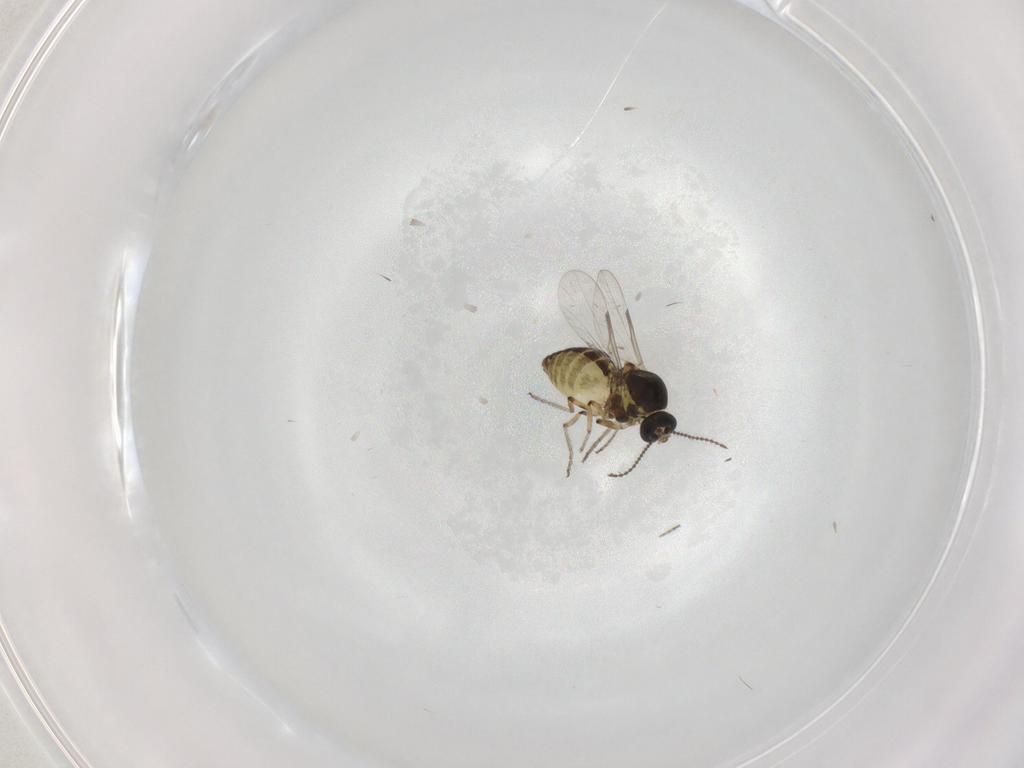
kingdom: Animalia
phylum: Arthropoda
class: Insecta
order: Diptera
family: Ceratopogonidae
